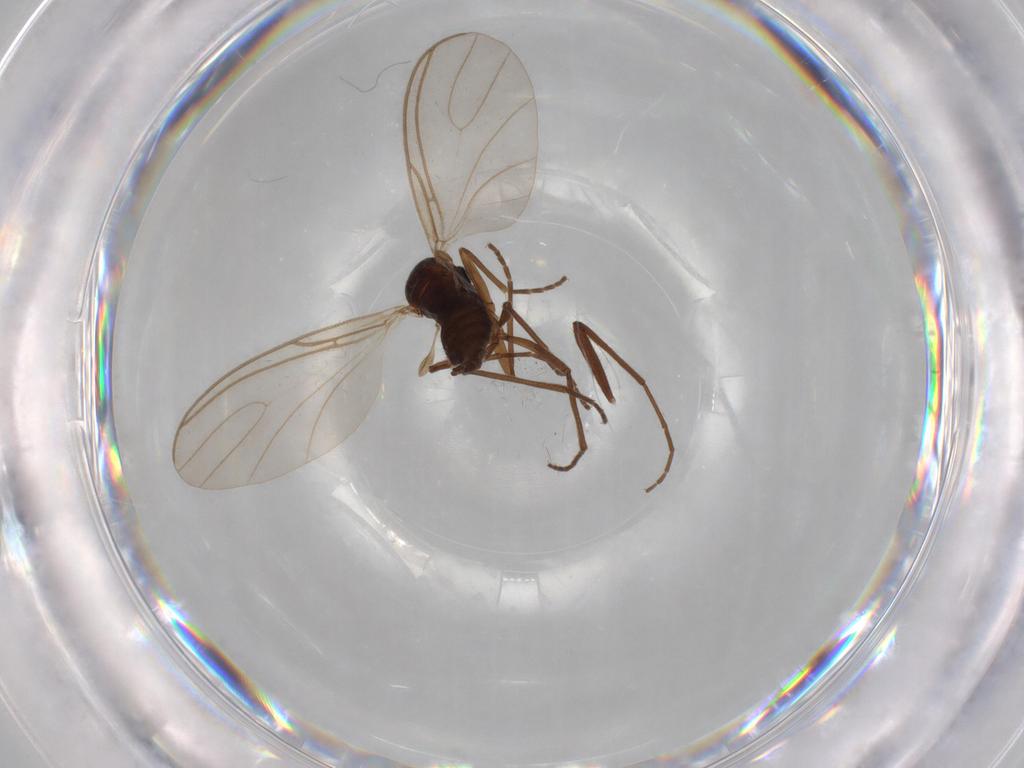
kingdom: Animalia
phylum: Arthropoda
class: Insecta
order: Diptera
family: Chironomidae
